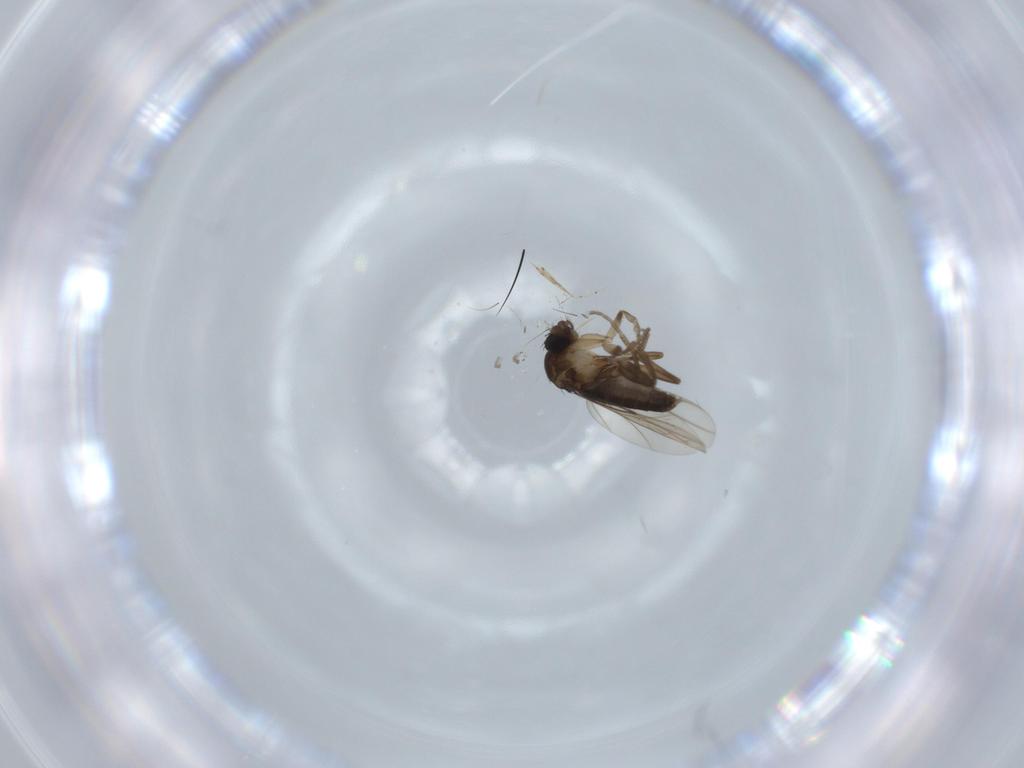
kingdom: Animalia
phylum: Arthropoda
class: Insecta
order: Diptera
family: Phoridae
